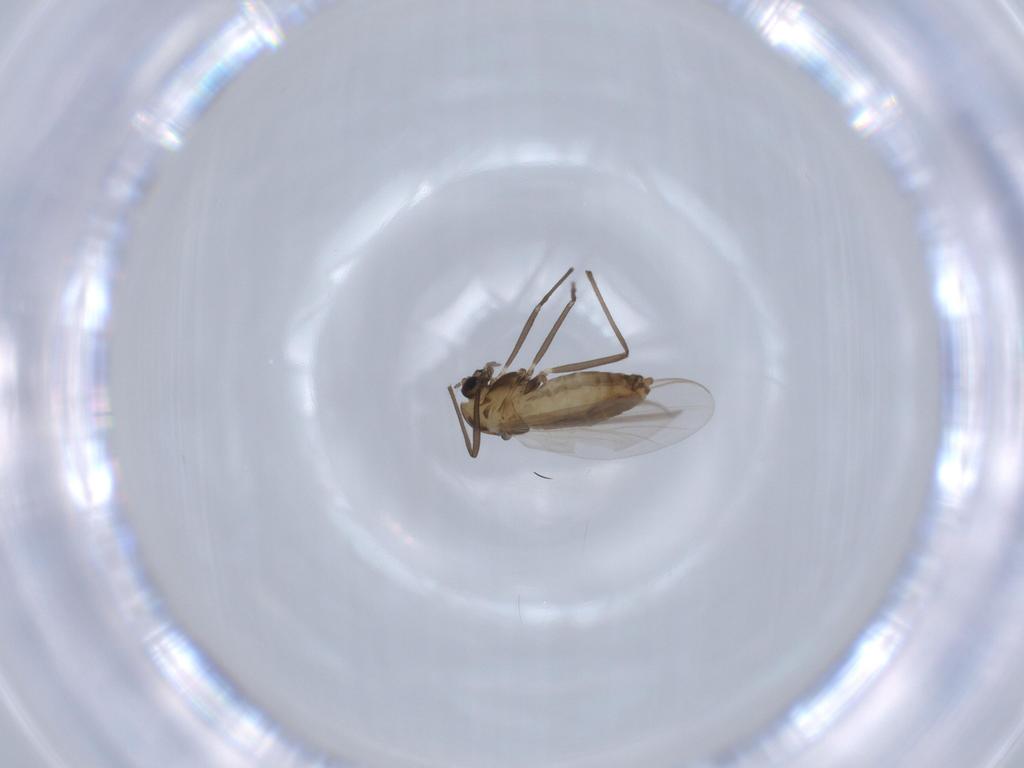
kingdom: Animalia
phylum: Arthropoda
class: Insecta
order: Diptera
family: Chironomidae
